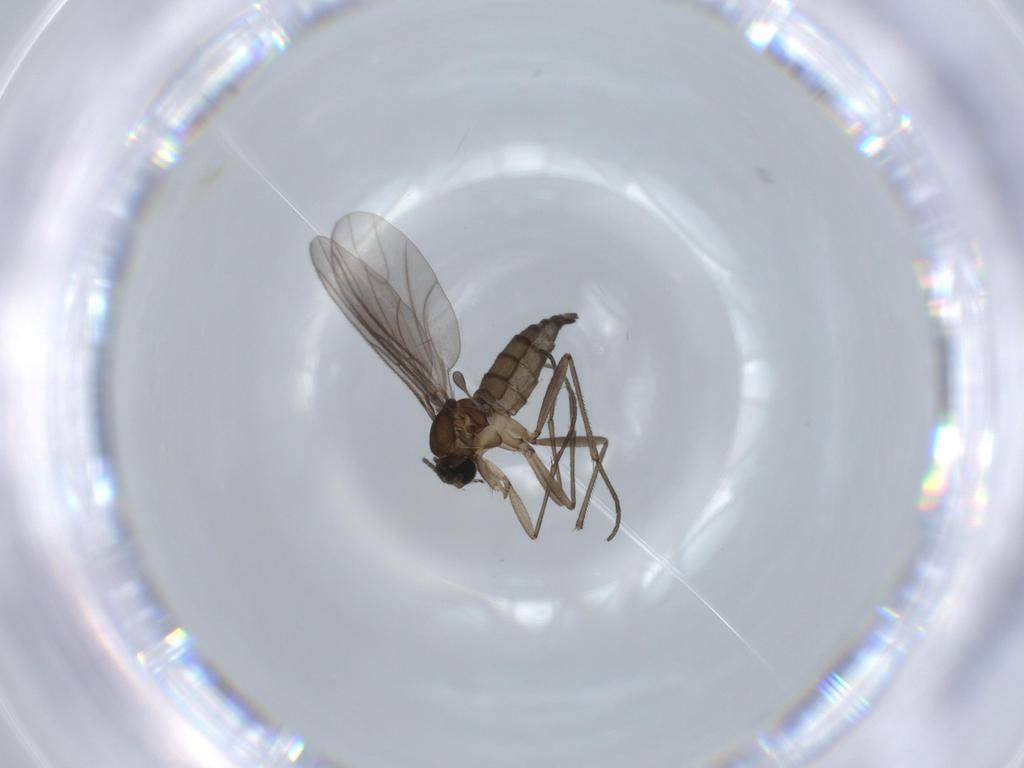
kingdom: Animalia
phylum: Arthropoda
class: Insecta
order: Diptera
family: Sciaridae
